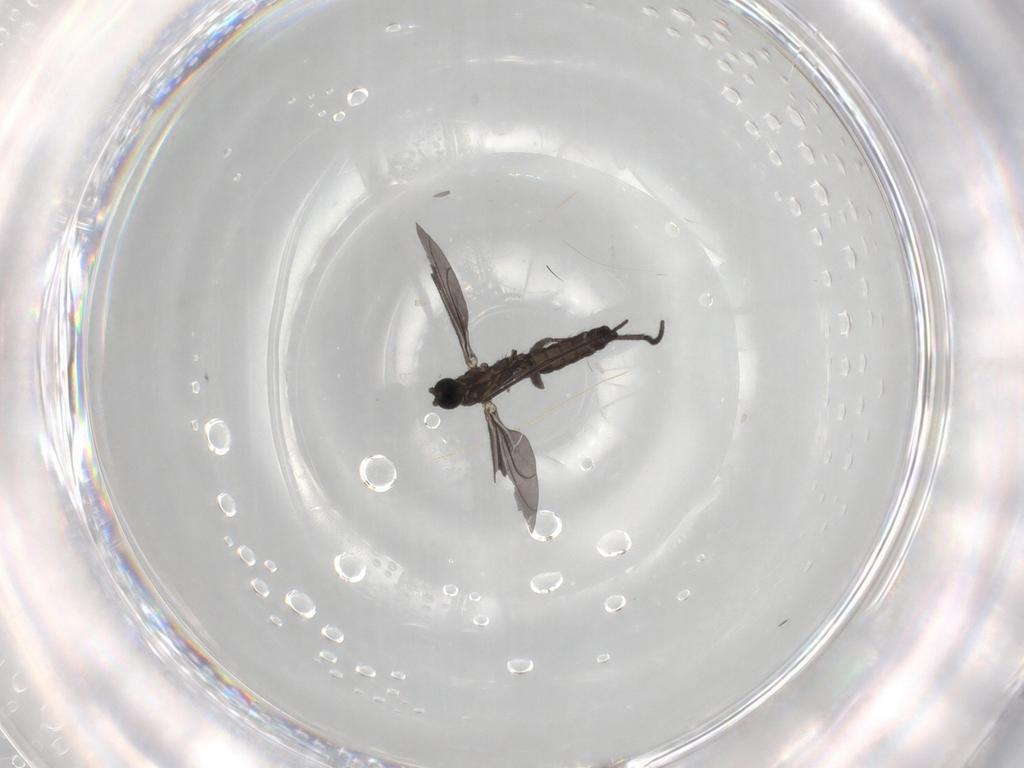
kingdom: Animalia
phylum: Arthropoda
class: Insecta
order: Diptera
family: Sciaridae
